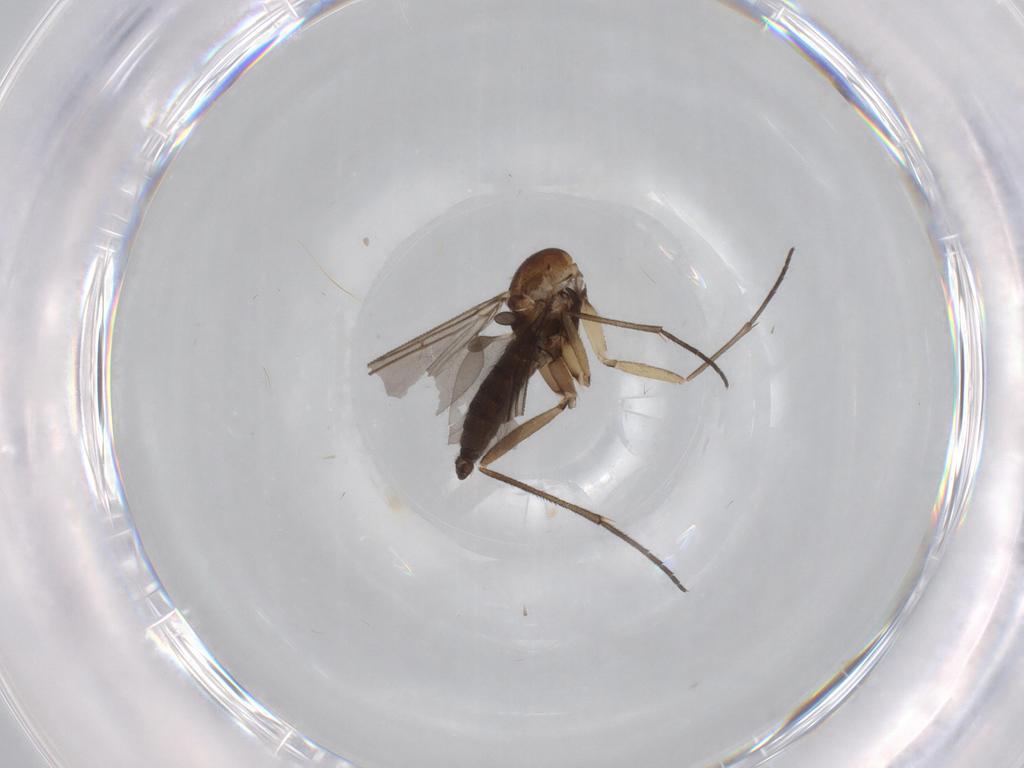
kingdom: Animalia
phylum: Arthropoda
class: Insecta
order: Diptera
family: Sciaridae
